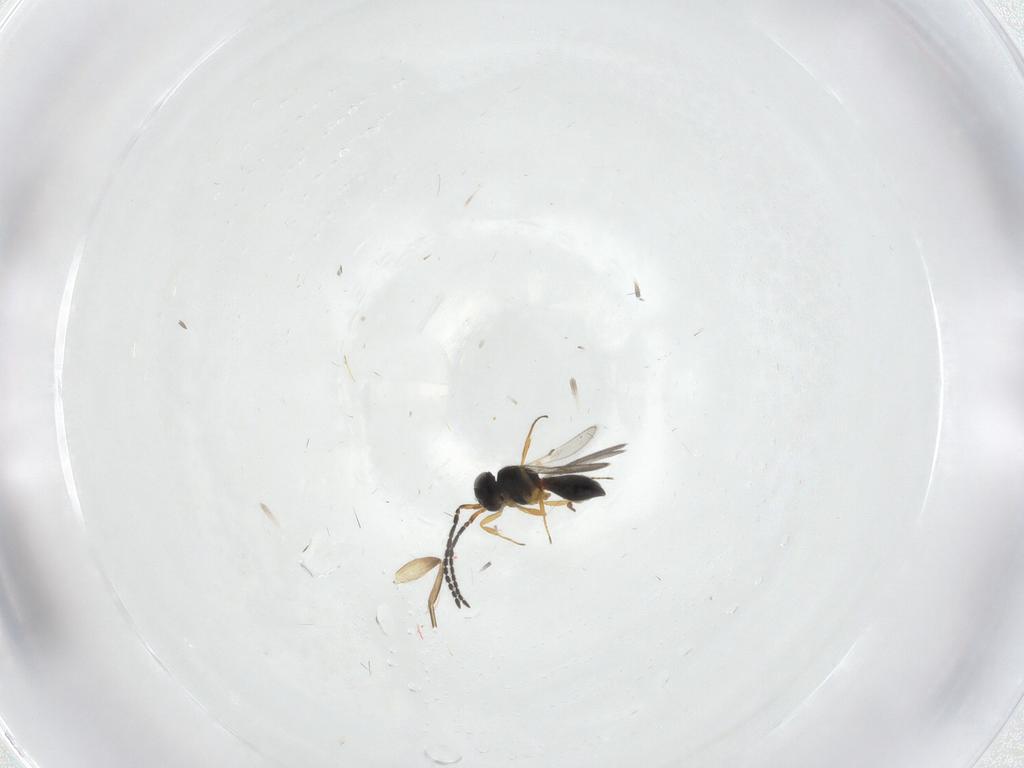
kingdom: Animalia
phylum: Arthropoda
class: Insecta
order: Hymenoptera
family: Scelionidae
